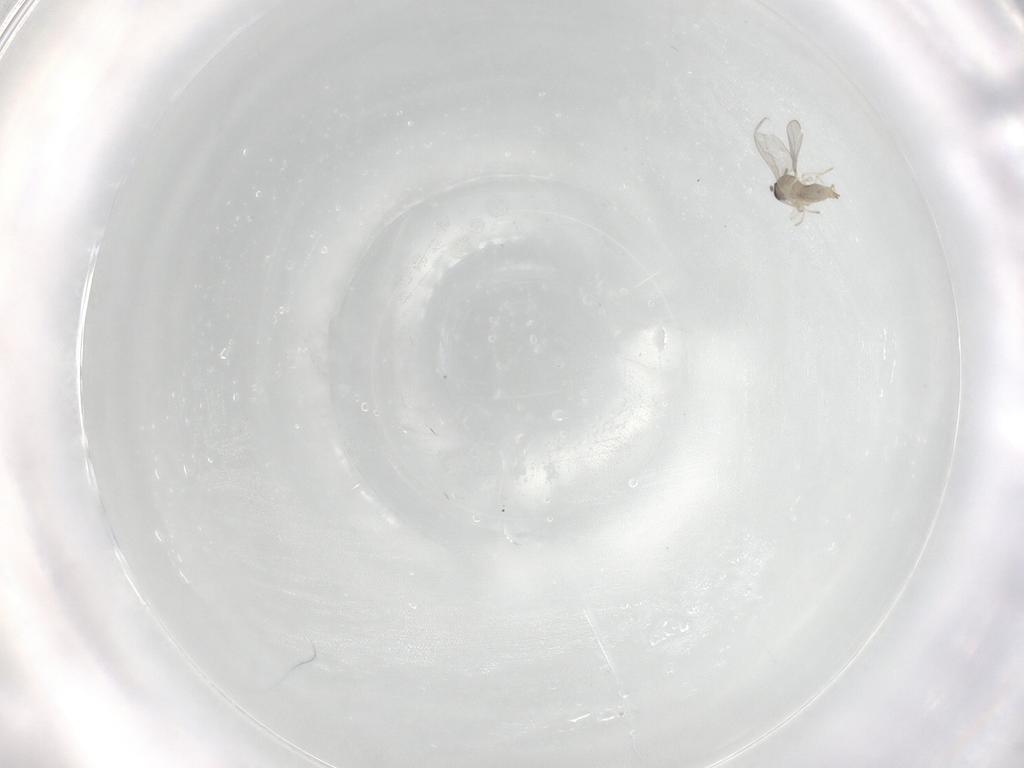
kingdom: Animalia
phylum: Arthropoda
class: Insecta
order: Diptera
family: Cecidomyiidae
